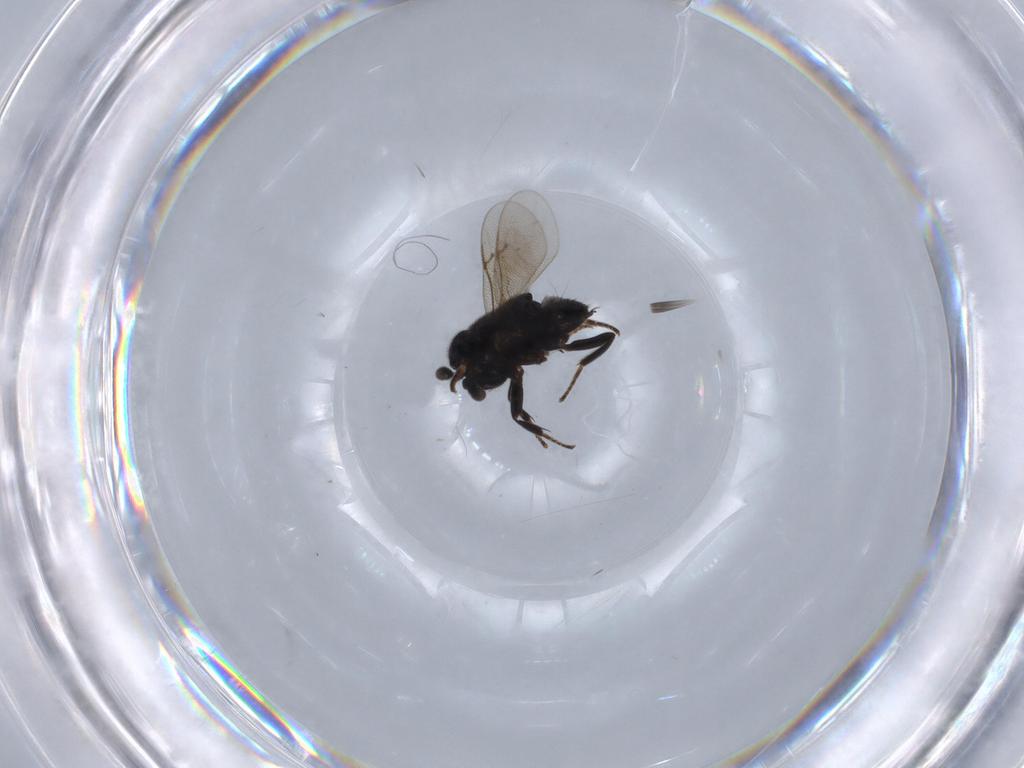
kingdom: Animalia
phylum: Arthropoda
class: Insecta
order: Hymenoptera
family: Encyrtidae
